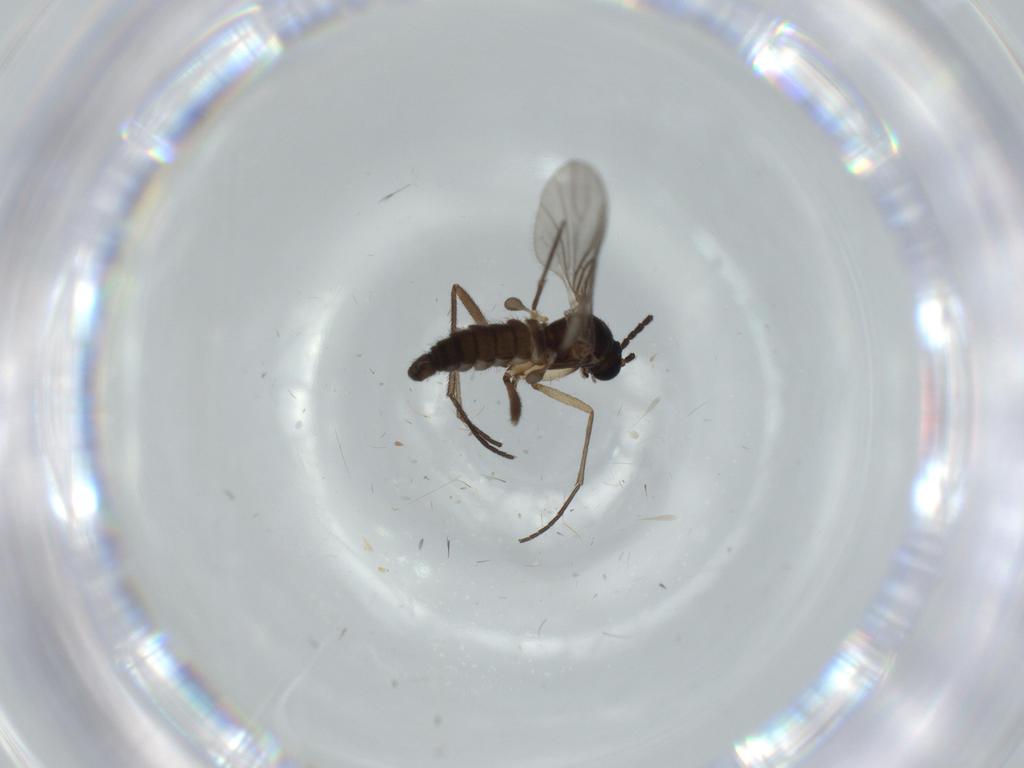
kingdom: Animalia
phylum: Arthropoda
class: Insecta
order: Diptera
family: Sciaridae
